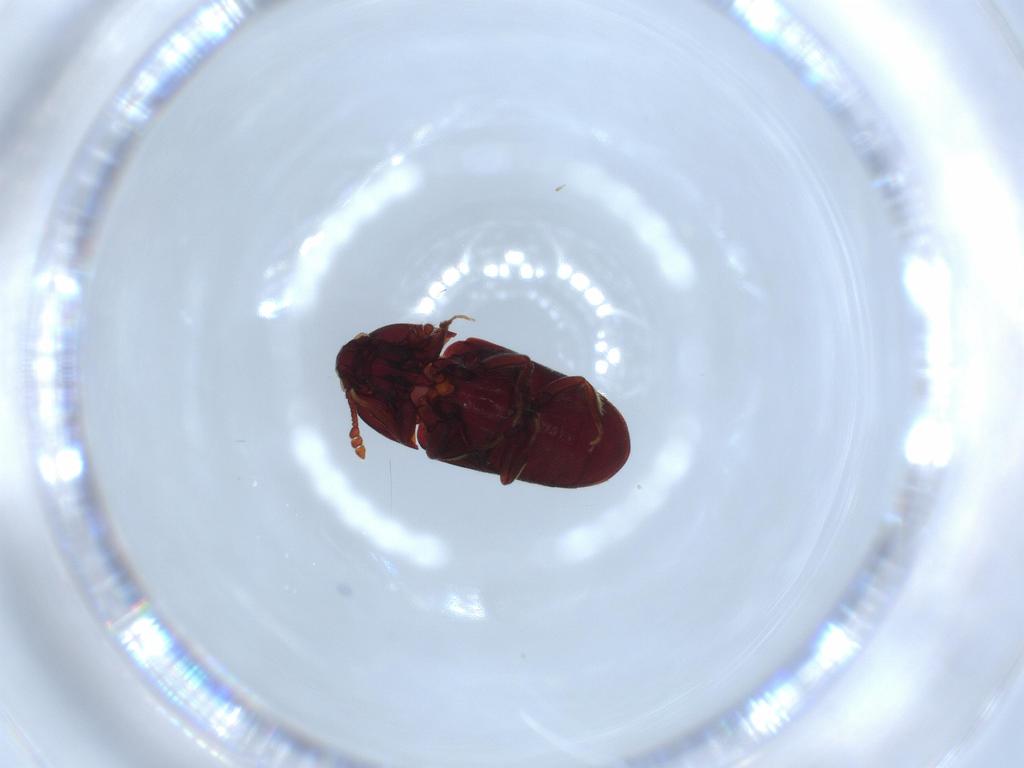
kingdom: Animalia
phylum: Arthropoda
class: Insecta
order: Coleoptera
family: Throscidae
